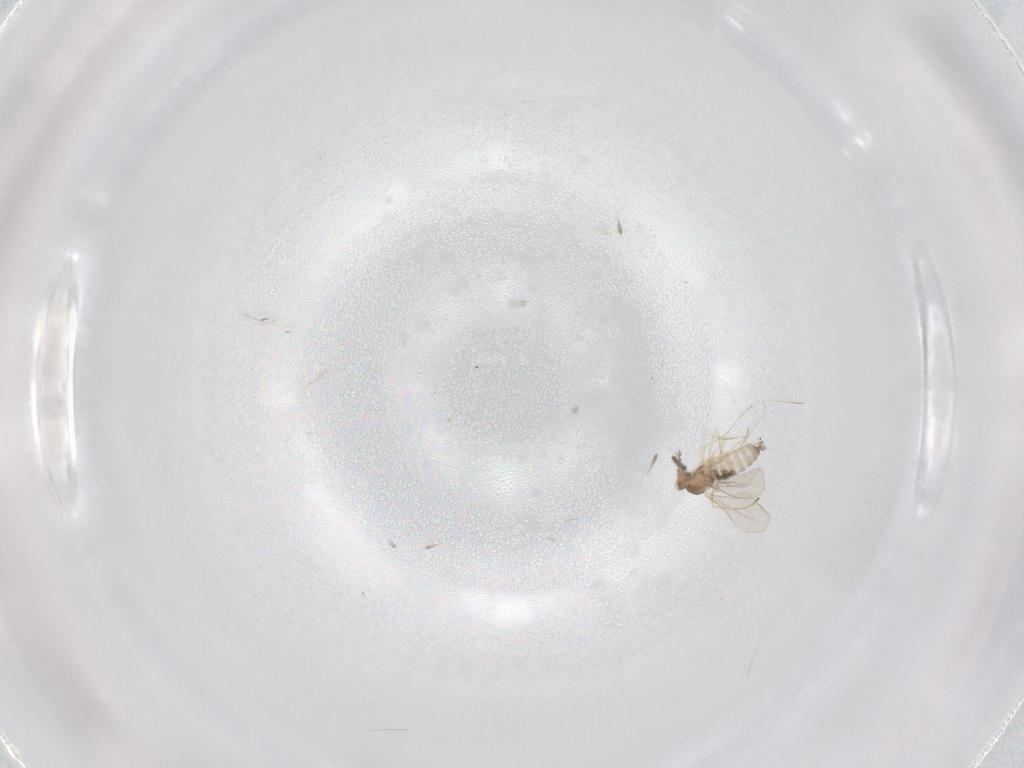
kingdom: Animalia
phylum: Arthropoda
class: Insecta
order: Diptera
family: Phoridae
